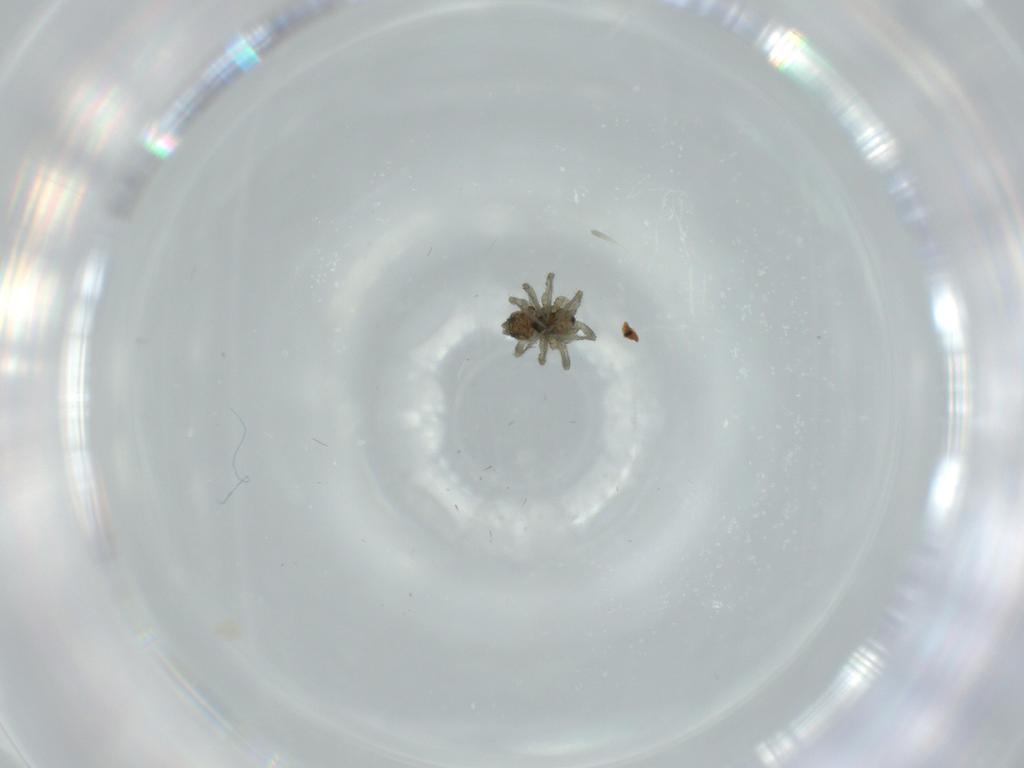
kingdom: Animalia
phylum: Arthropoda
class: Arachnida
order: Araneae
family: Linyphiidae
